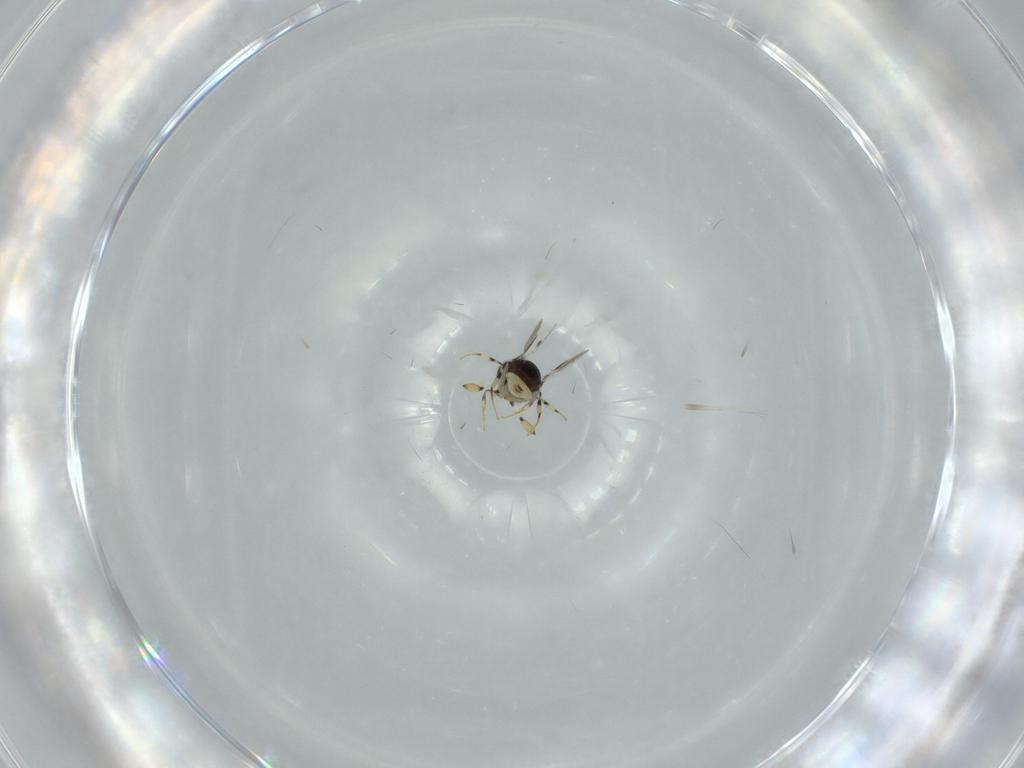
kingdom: Animalia
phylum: Arthropoda
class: Insecta
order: Hymenoptera
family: Scelionidae
